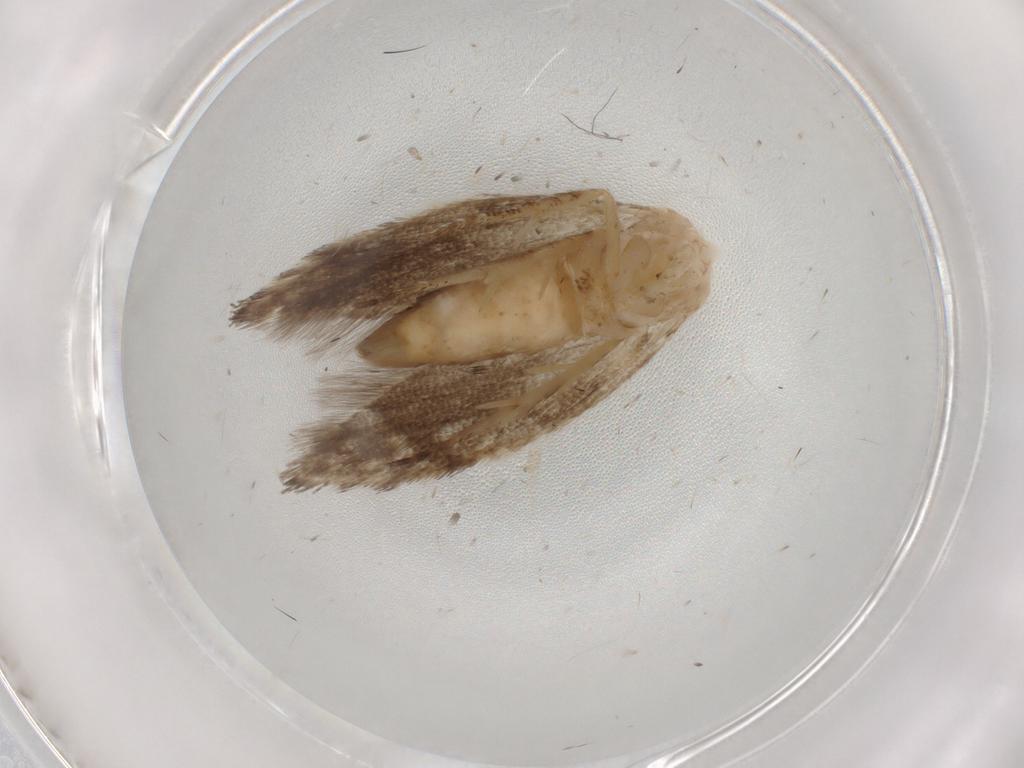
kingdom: Animalia
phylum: Arthropoda
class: Insecta
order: Lepidoptera
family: Plutellidae
